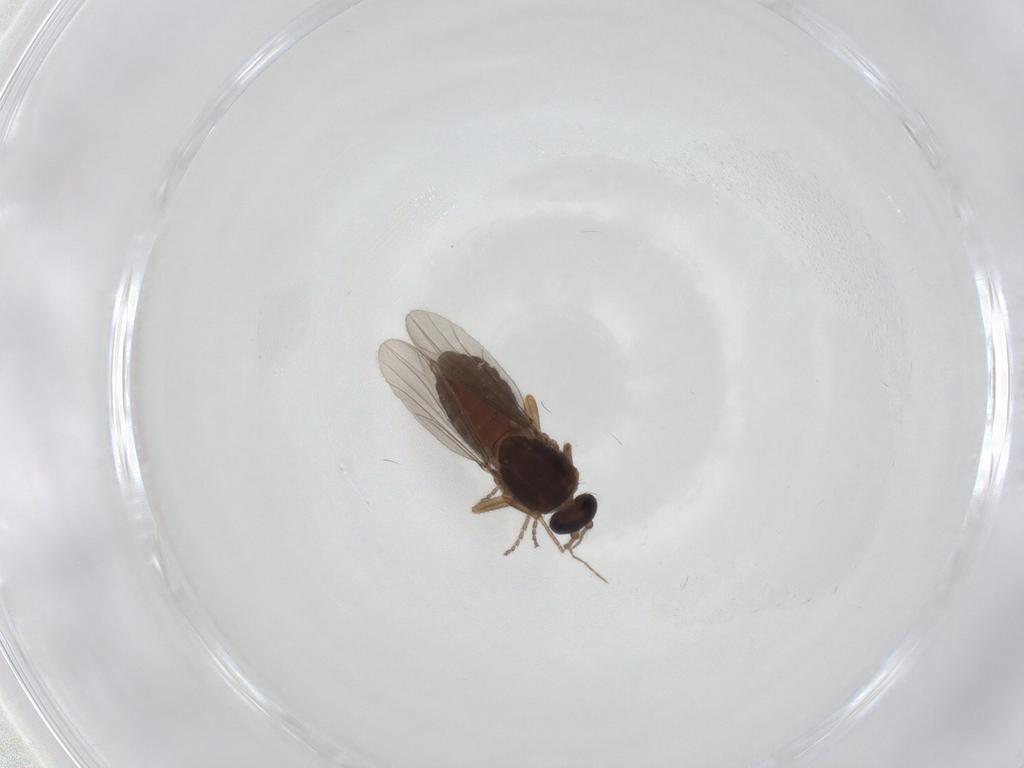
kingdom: Animalia
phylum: Arthropoda
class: Insecta
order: Diptera
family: Ceratopogonidae
